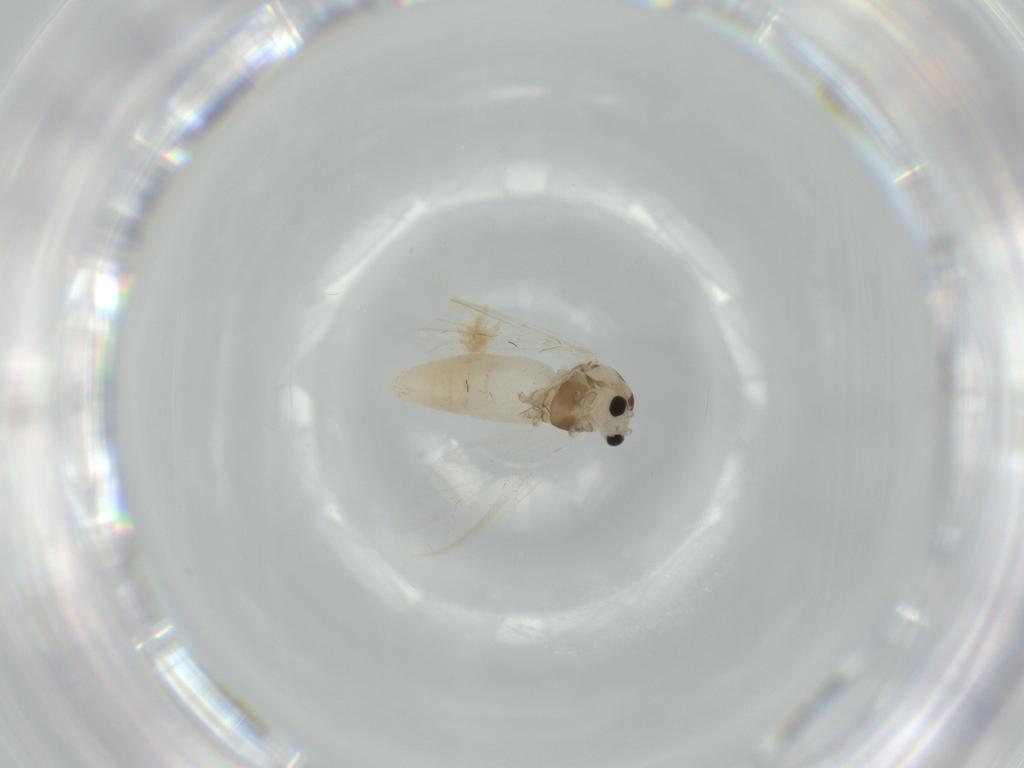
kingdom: Animalia
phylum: Arthropoda
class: Insecta
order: Diptera
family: Chironomidae
